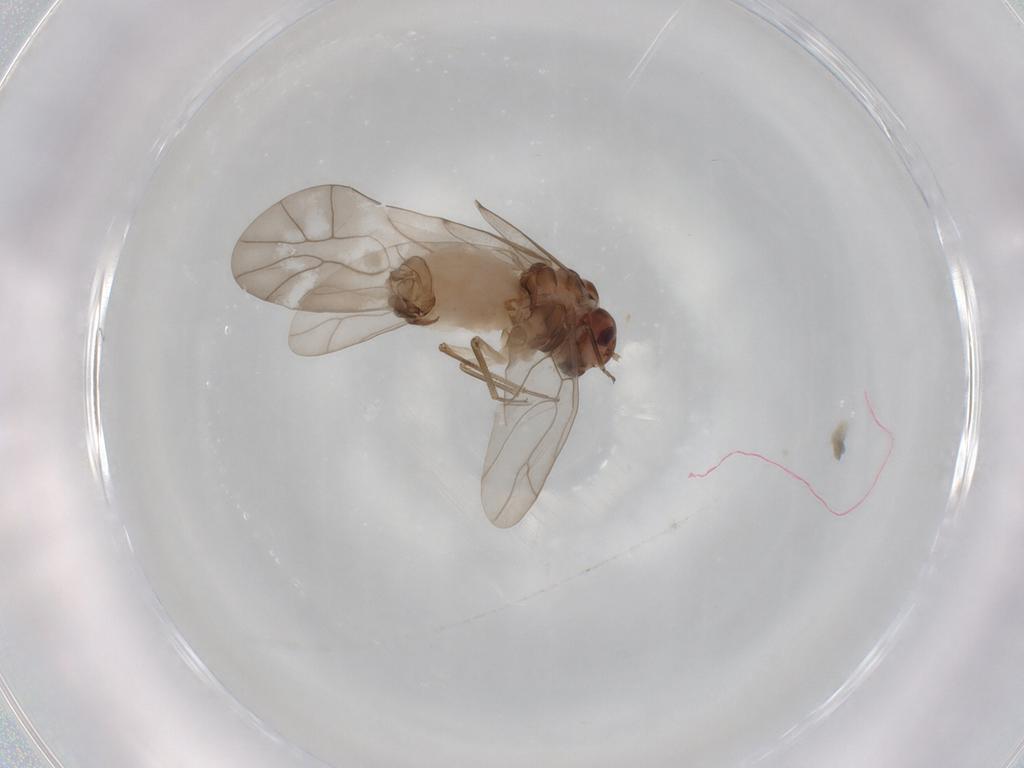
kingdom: Animalia
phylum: Arthropoda
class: Insecta
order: Psocodea
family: Peripsocidae
